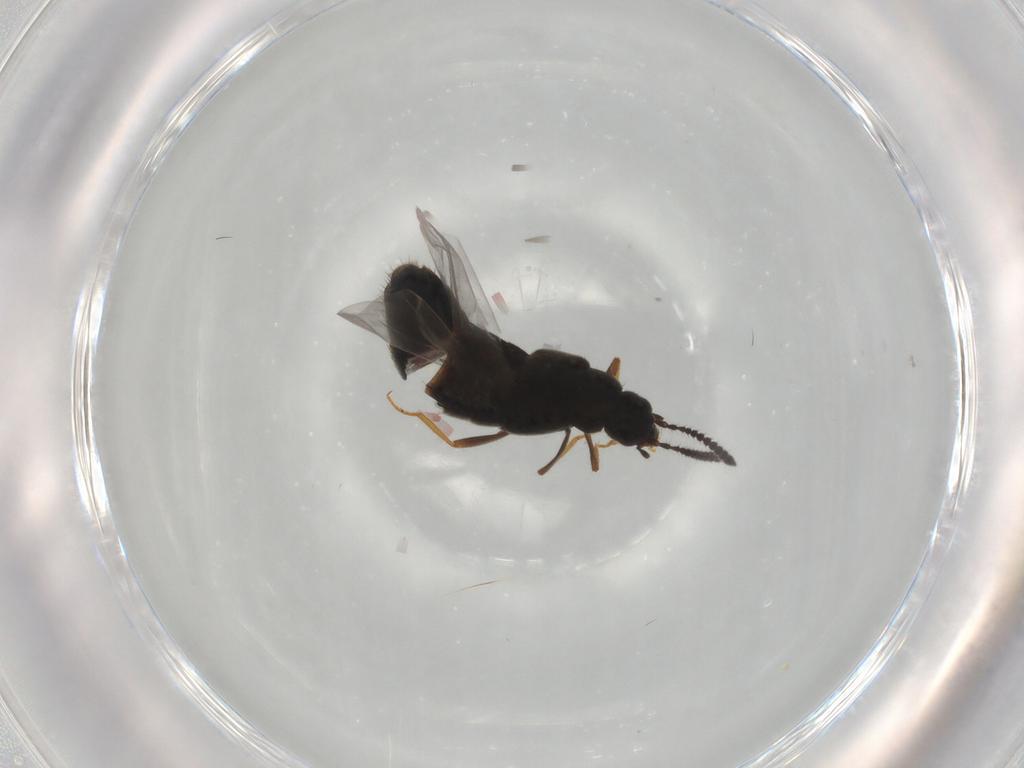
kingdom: Animalia
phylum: Arthropoda
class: Insecta
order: Coleoptera
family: Staphylinidae
